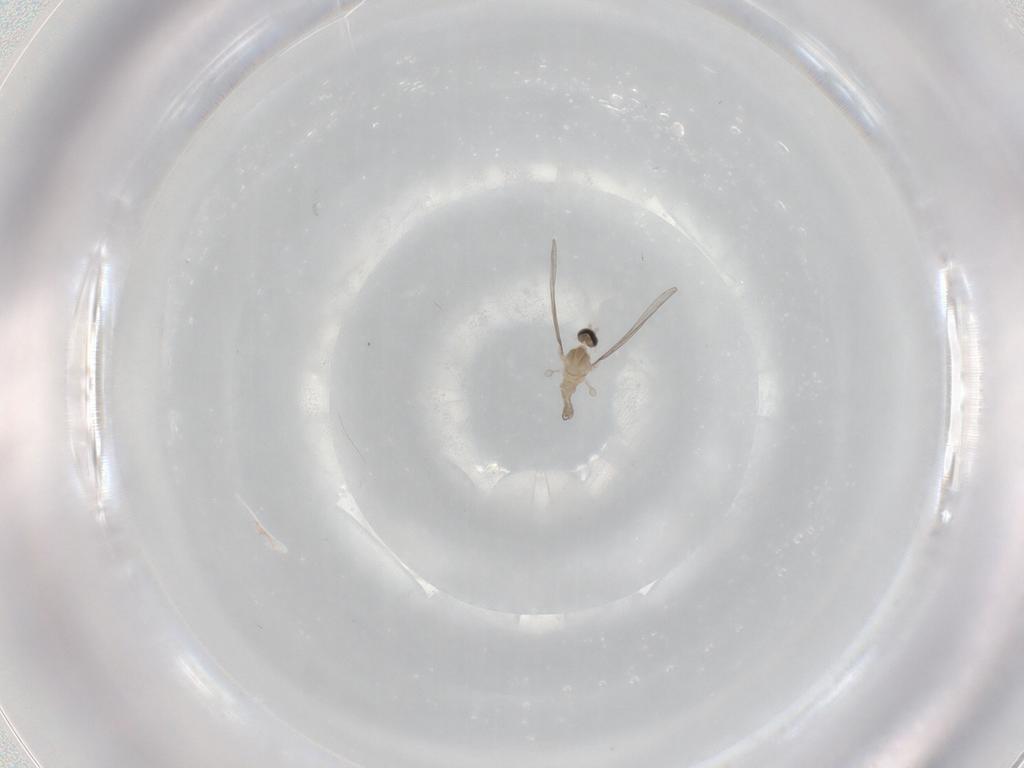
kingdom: Animalia
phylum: Arthropoda
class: Insecta
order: Diptera
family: Cecidomyiidae
